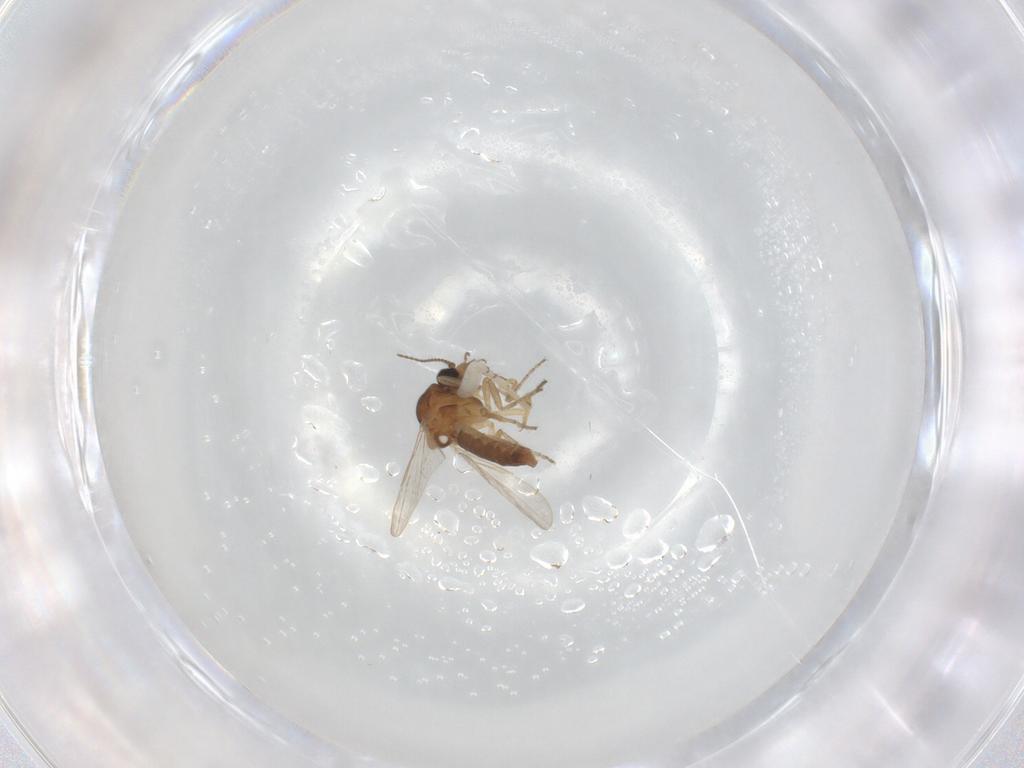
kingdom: Animalia
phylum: Arthropoda
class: Insecta
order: Diptera
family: Ceratopogonidae
